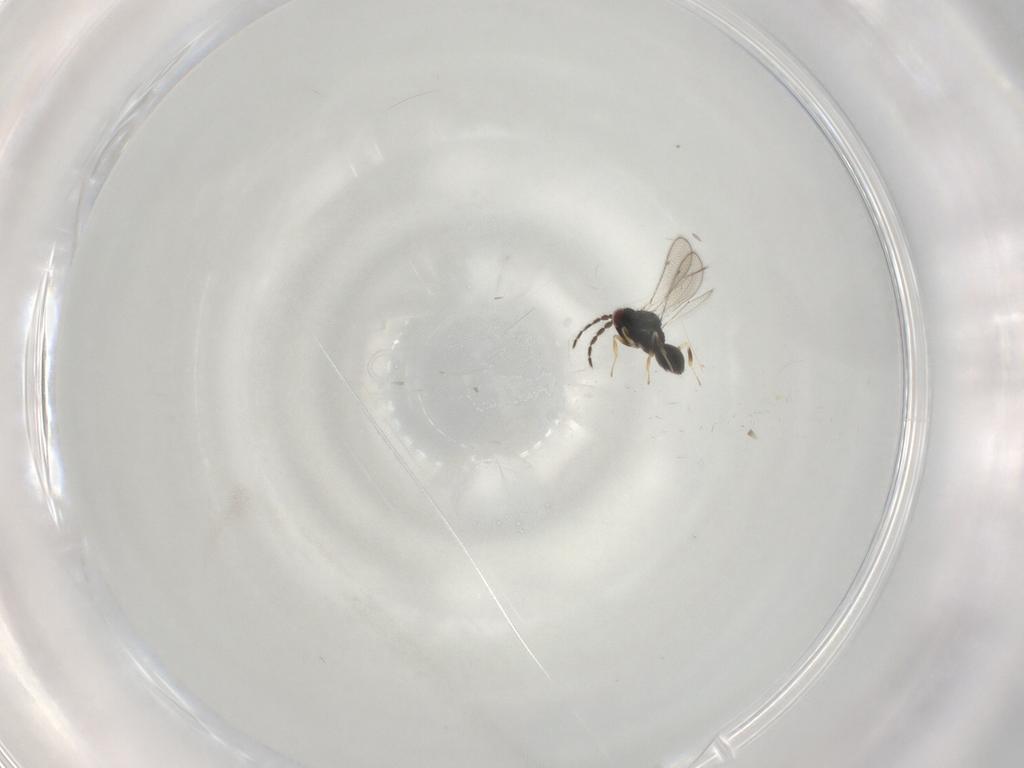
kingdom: Animalia
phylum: Arthropoda
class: Insecta
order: Hymenoptera
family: Eulophidae
